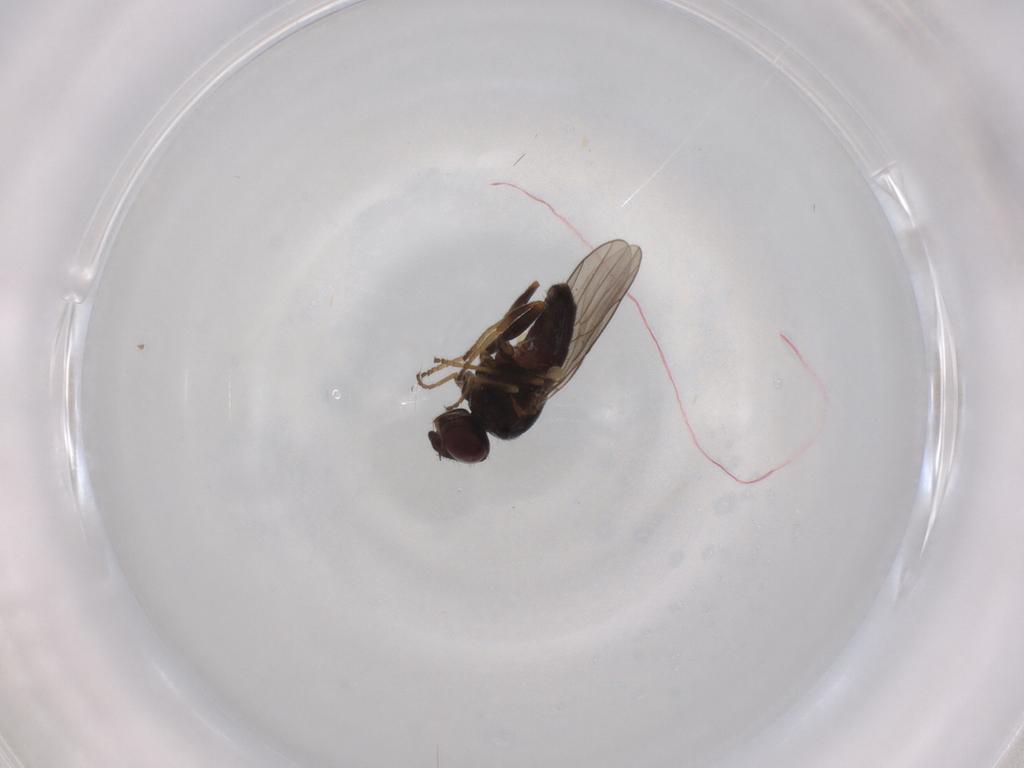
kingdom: Animalia
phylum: Arthropoda
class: Insecta
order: Diptera
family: Chloropidae
